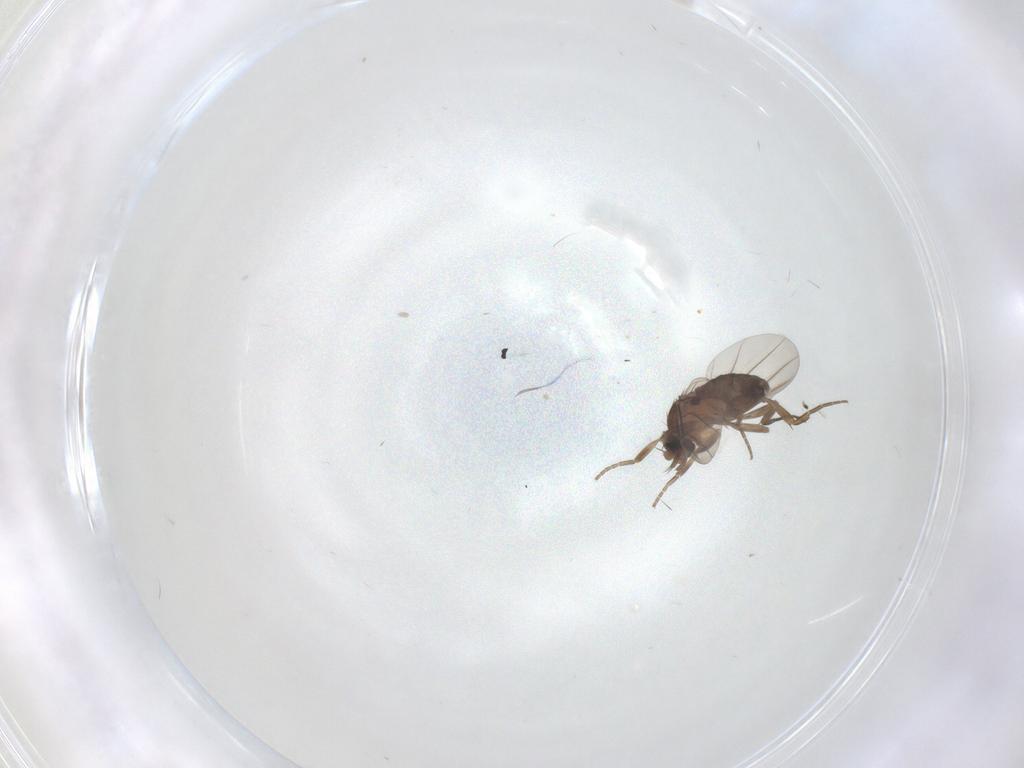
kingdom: Animalia
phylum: Arthropoda
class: Insecta
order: Diptera
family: Phoridae
